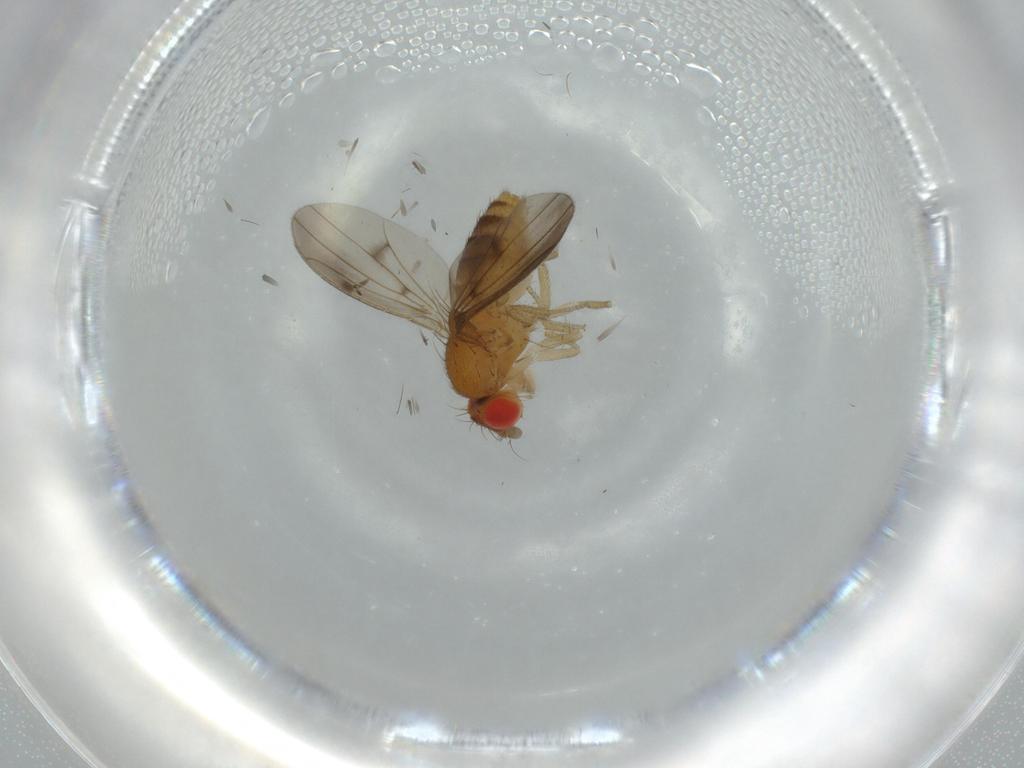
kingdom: Animalia
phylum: Arthropoda
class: Insecta
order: Diptera
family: Drosophilidae
